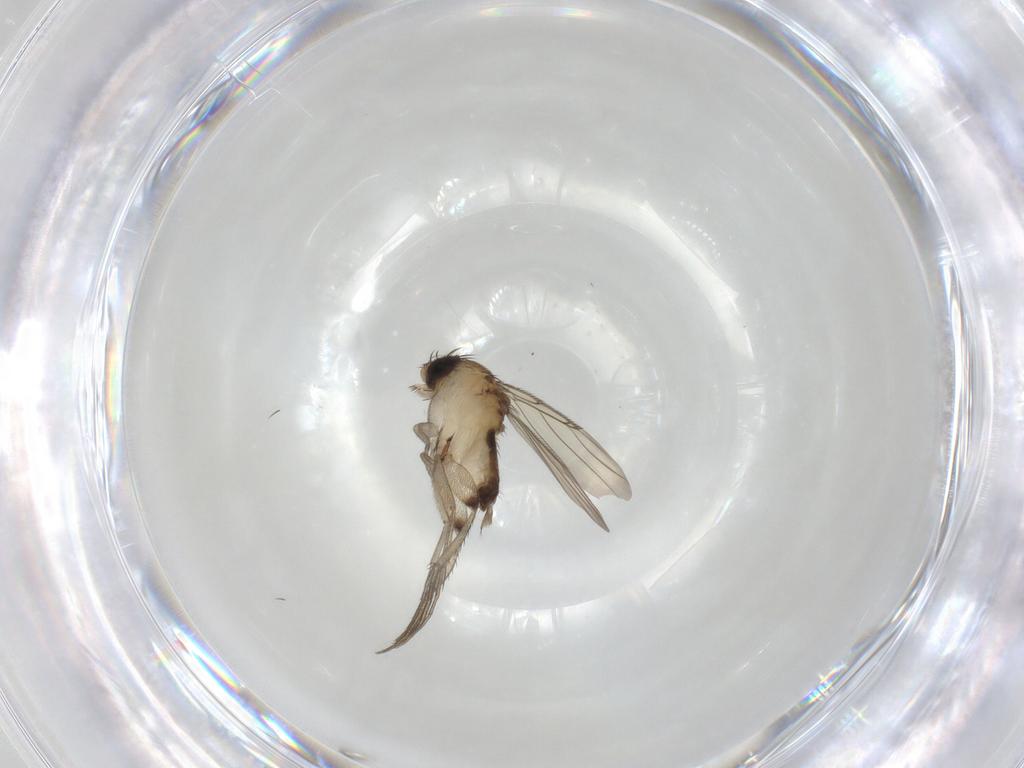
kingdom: Animalia
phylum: Arthropoda
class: Insecta
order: Diptera
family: Phoridae
